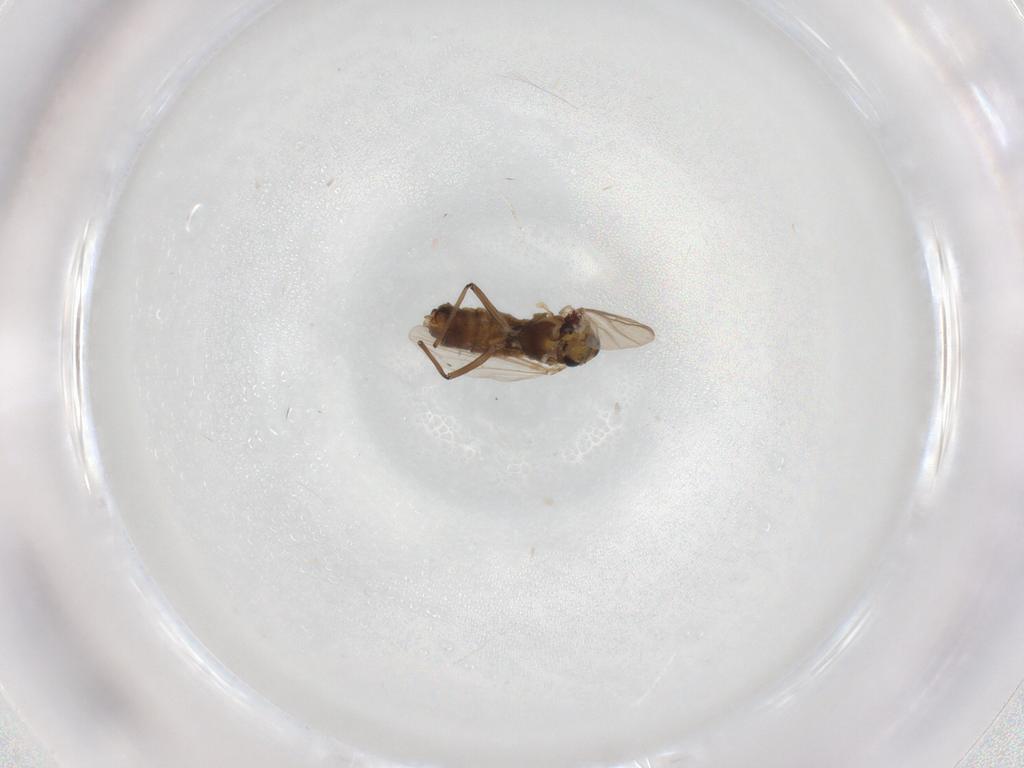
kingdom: Animalia
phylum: Arthropoda
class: Insecta
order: Diptera
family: Chironomidae
